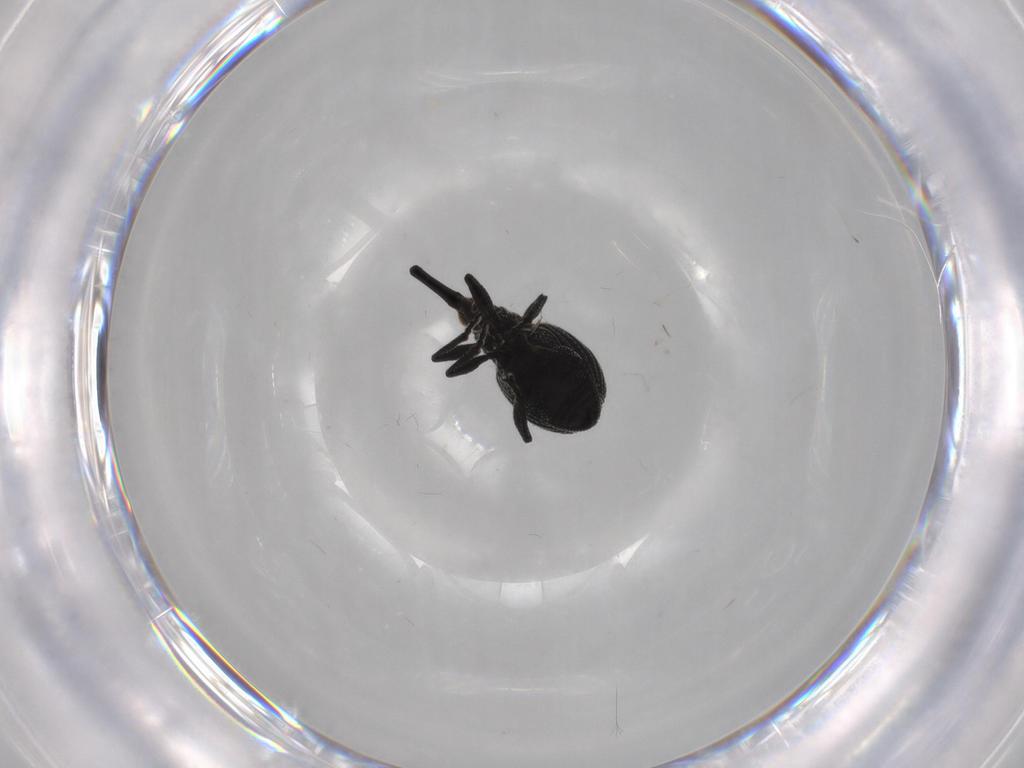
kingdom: Animalia
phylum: Arthropoda
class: Insecta
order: Coleoptera
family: Brentidae
